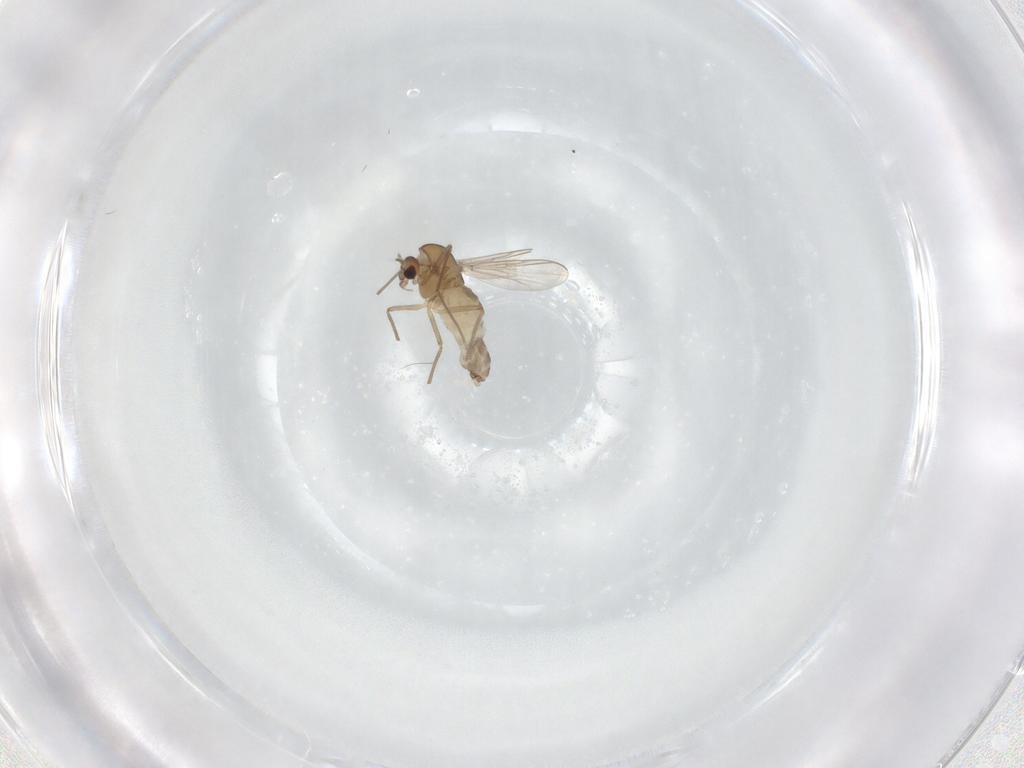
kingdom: Animalia
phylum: Arthropoda
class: Insecta
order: Diptera
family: Chironomidae
